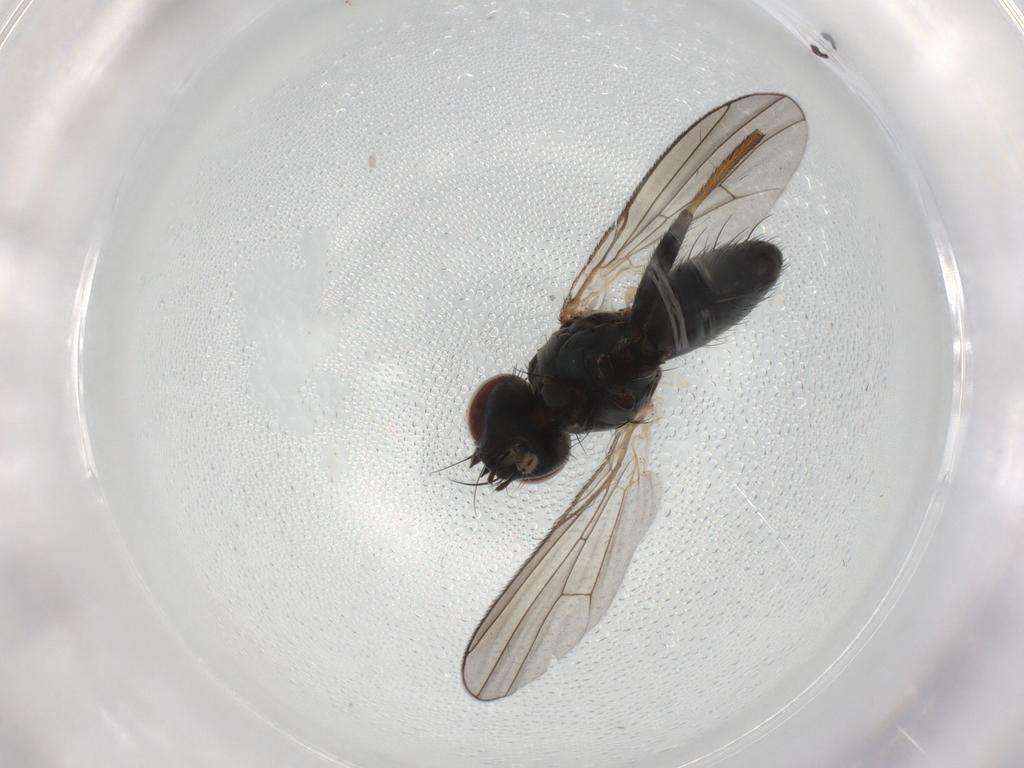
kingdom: Animalia
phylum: Arthropoda
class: Insecta
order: Diptera
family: Muscidae
